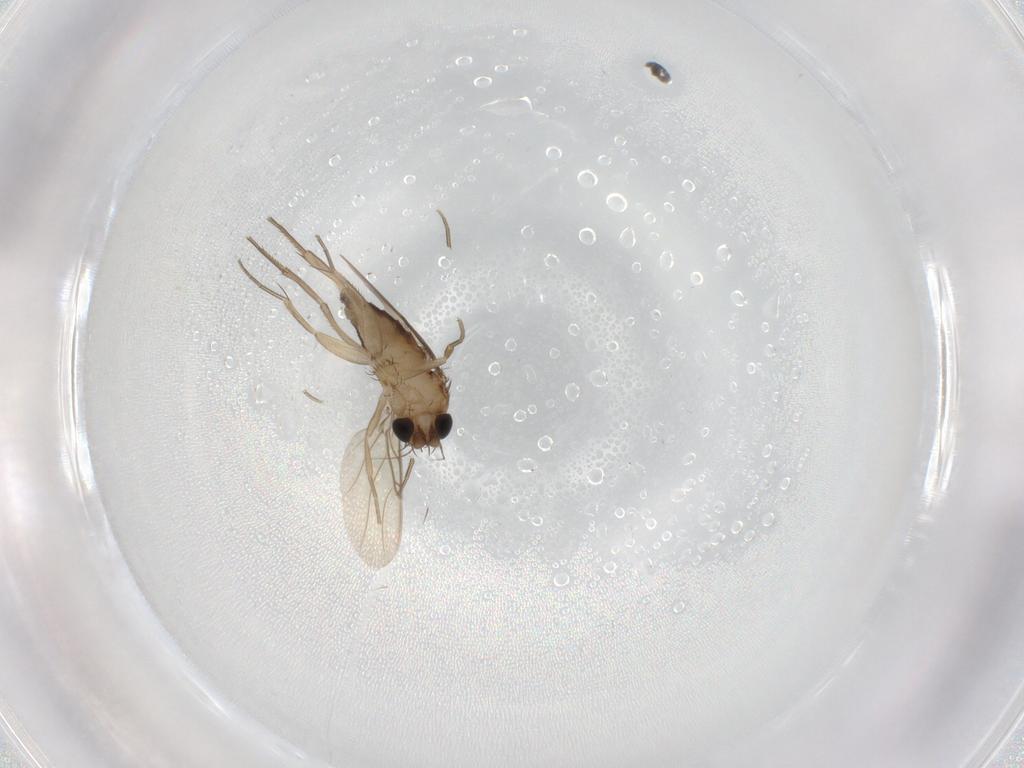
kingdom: Animalia
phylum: Arthropoda
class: Insecta
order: Diptera
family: Phoridae
